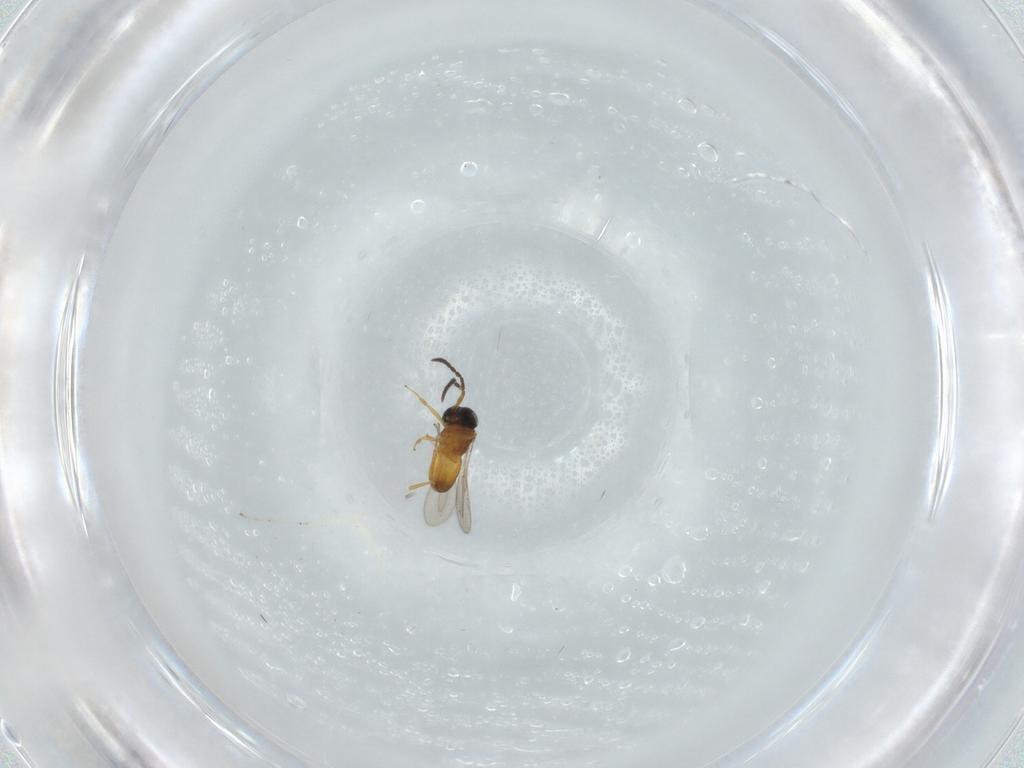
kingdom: Animalia
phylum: Arthropoda
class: Insecta
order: Hymenoptera
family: Scelionidae
